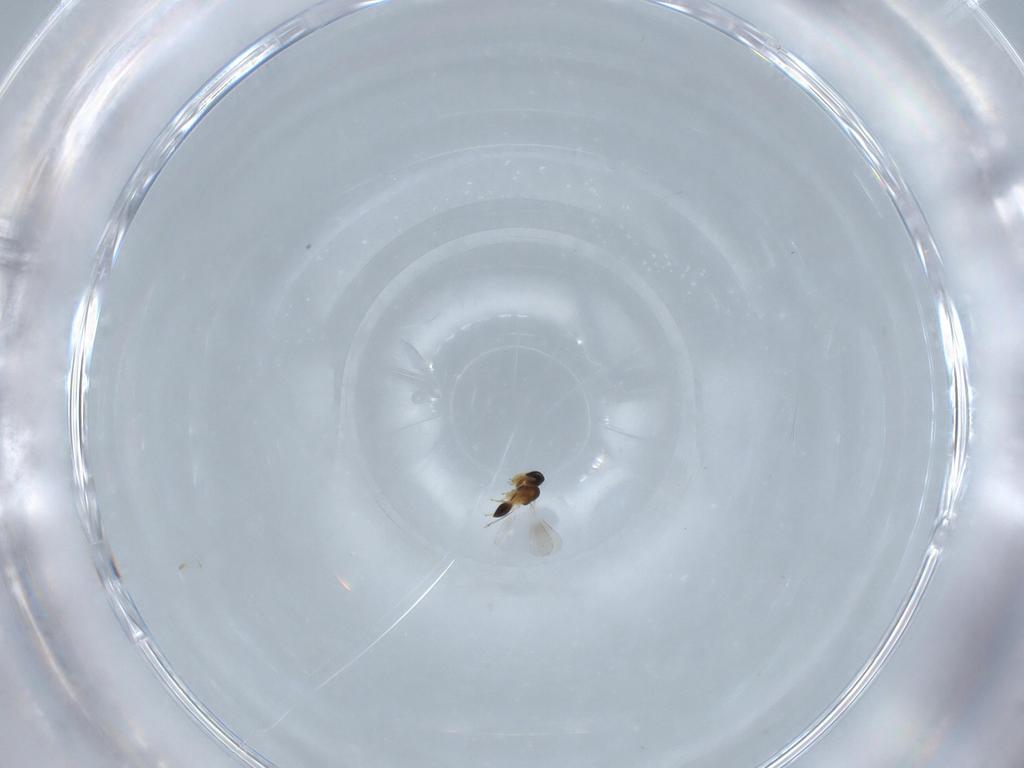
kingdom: Animalia
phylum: Arthropoda
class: Insecta
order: Hymenoptera
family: Platygastridae
